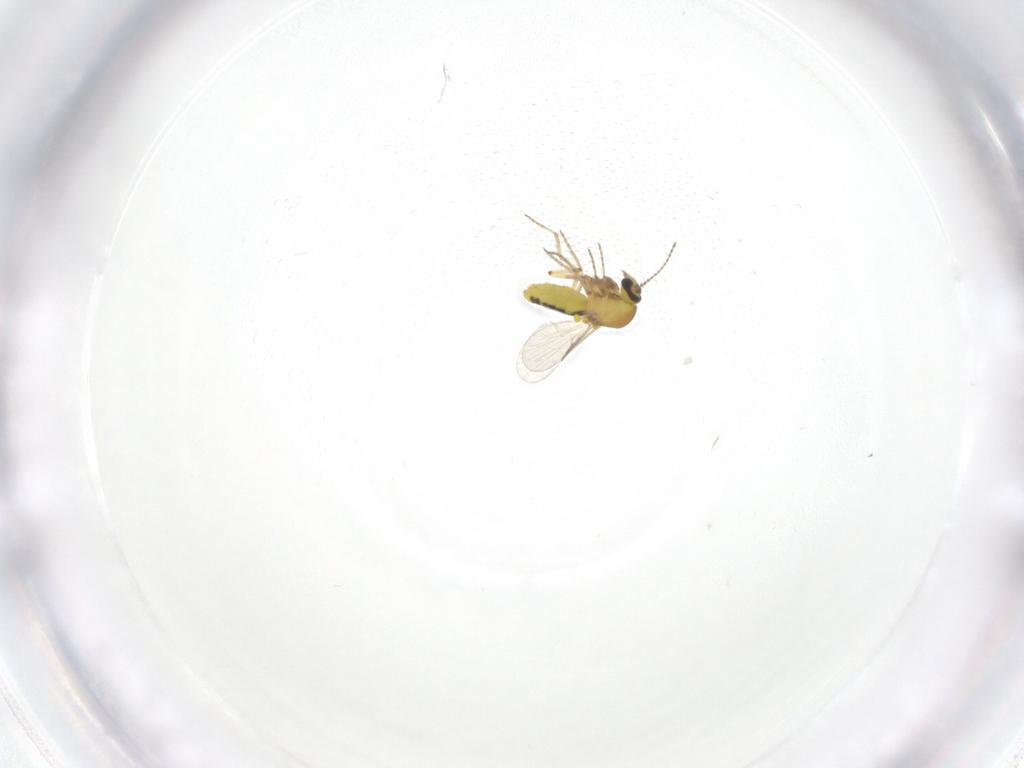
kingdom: Animalia
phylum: Arthropoda
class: Insecta
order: Diptera
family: Ceratopogonidae
